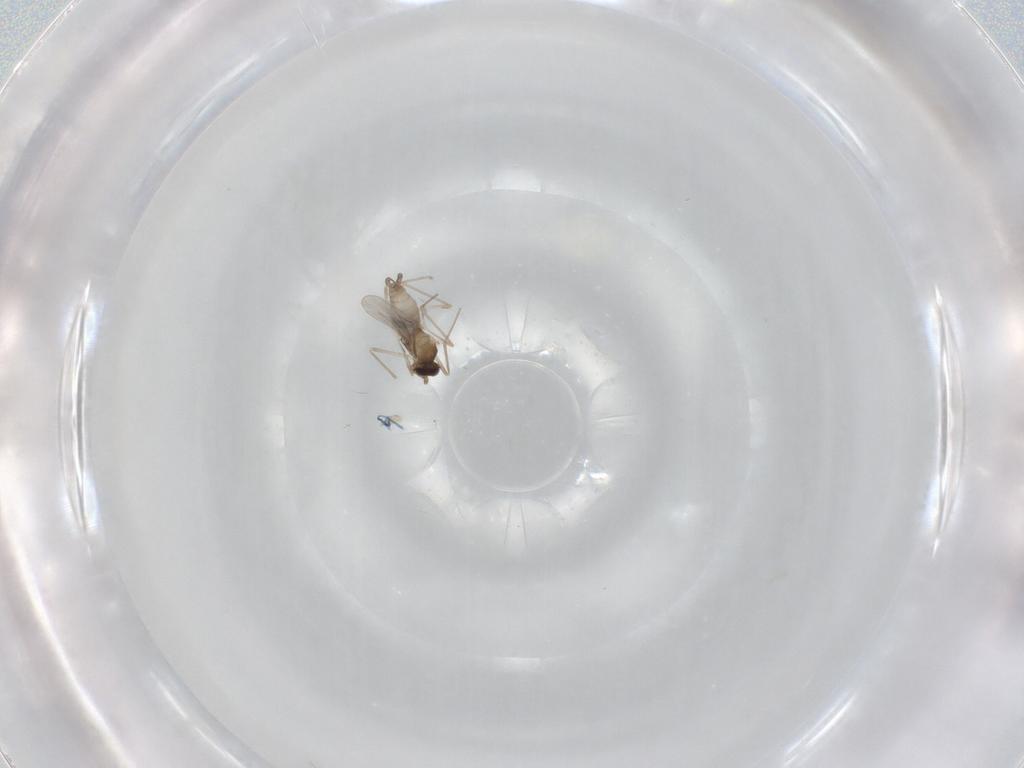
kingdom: Animalia
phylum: Arthropoda
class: Insecta
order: Diptera
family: Cecidomyiidae
